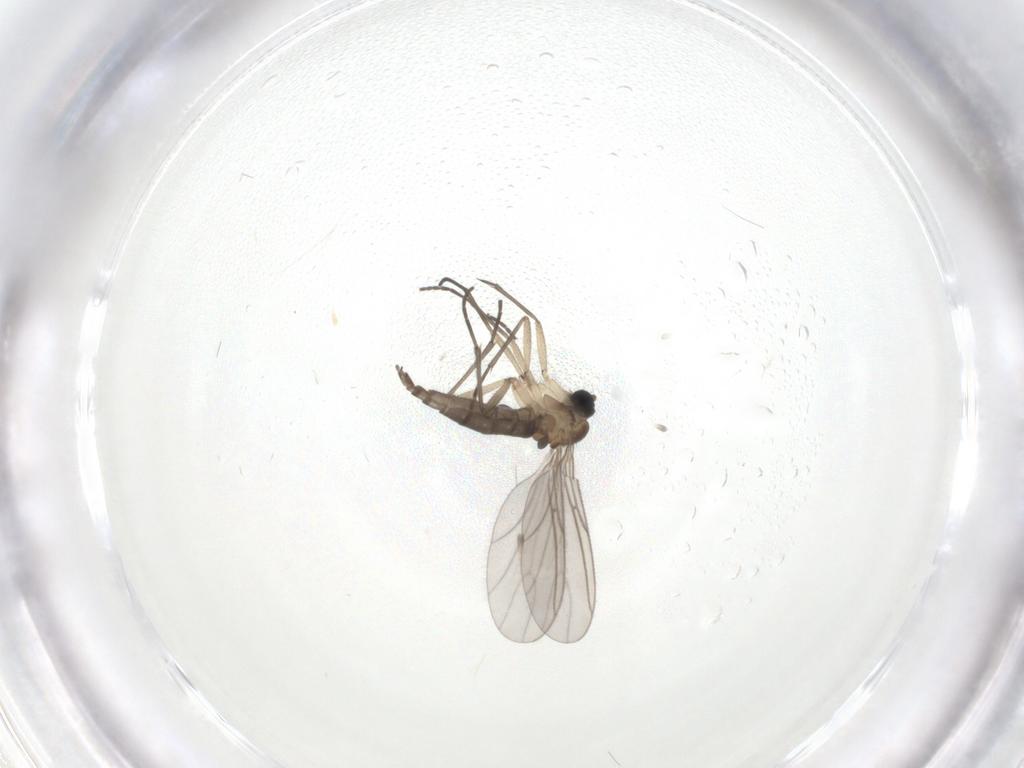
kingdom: Animalia
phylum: Arthropoda
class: Insecta
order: Diptera
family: Sciaridae
